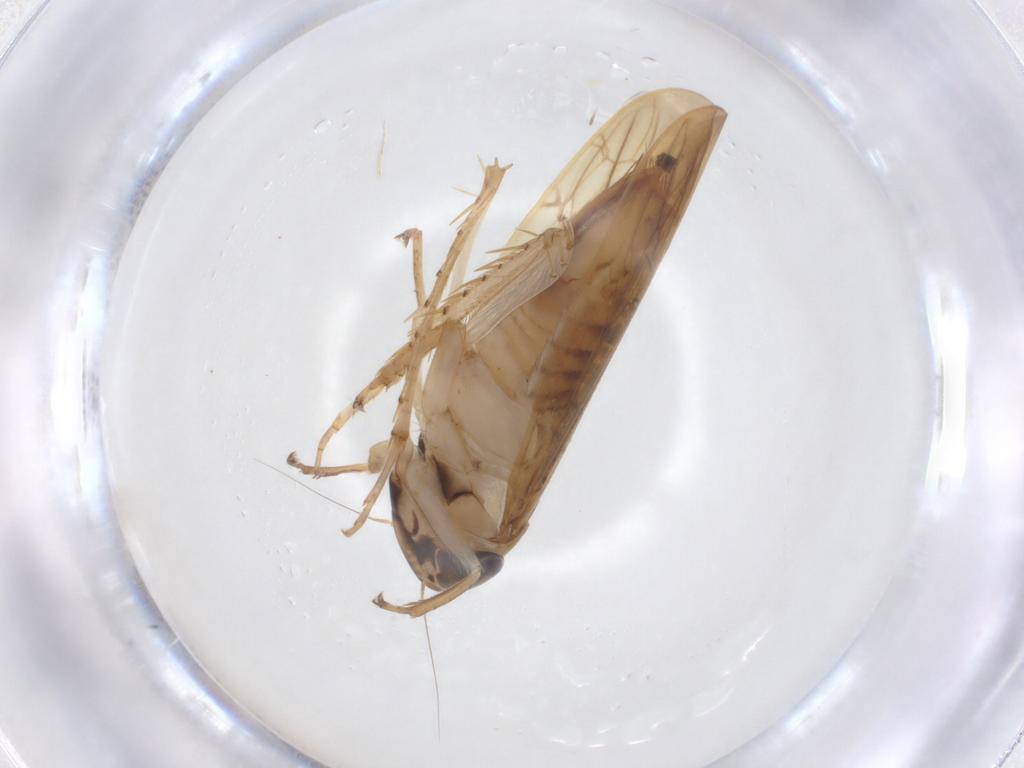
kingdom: Animalia
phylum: Arthropoda
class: Insecta
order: Hemiptera
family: Cicadellidae
